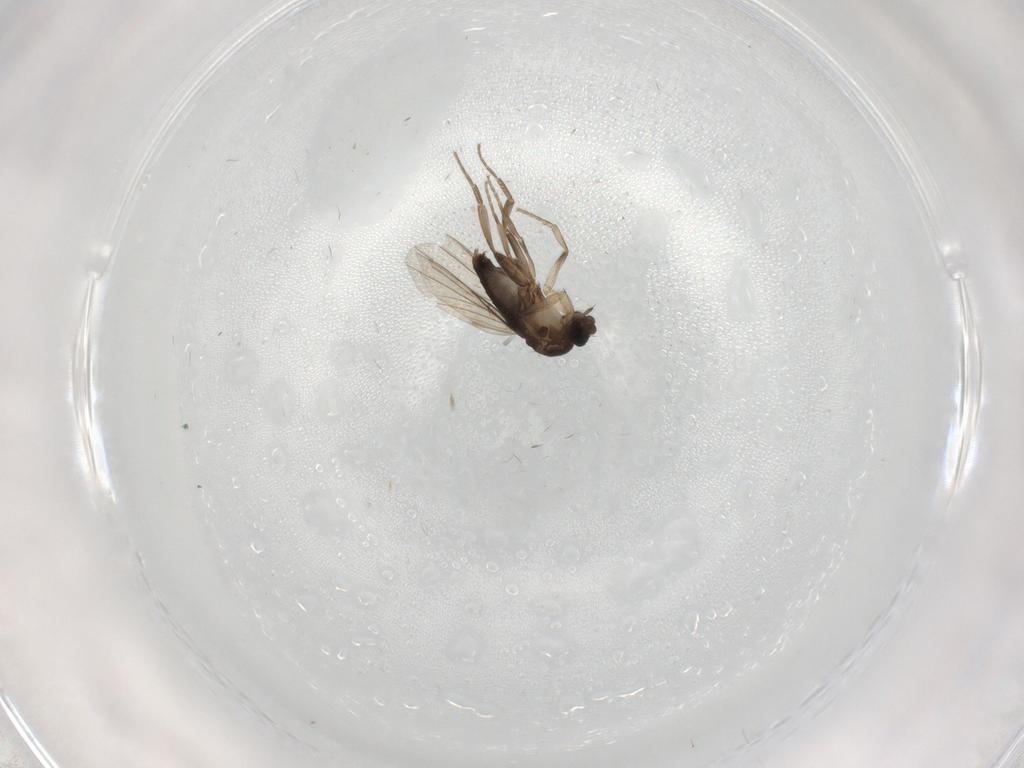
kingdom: Animalia
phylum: Arthropoda
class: Insecta
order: Diptera
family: Phoridae
